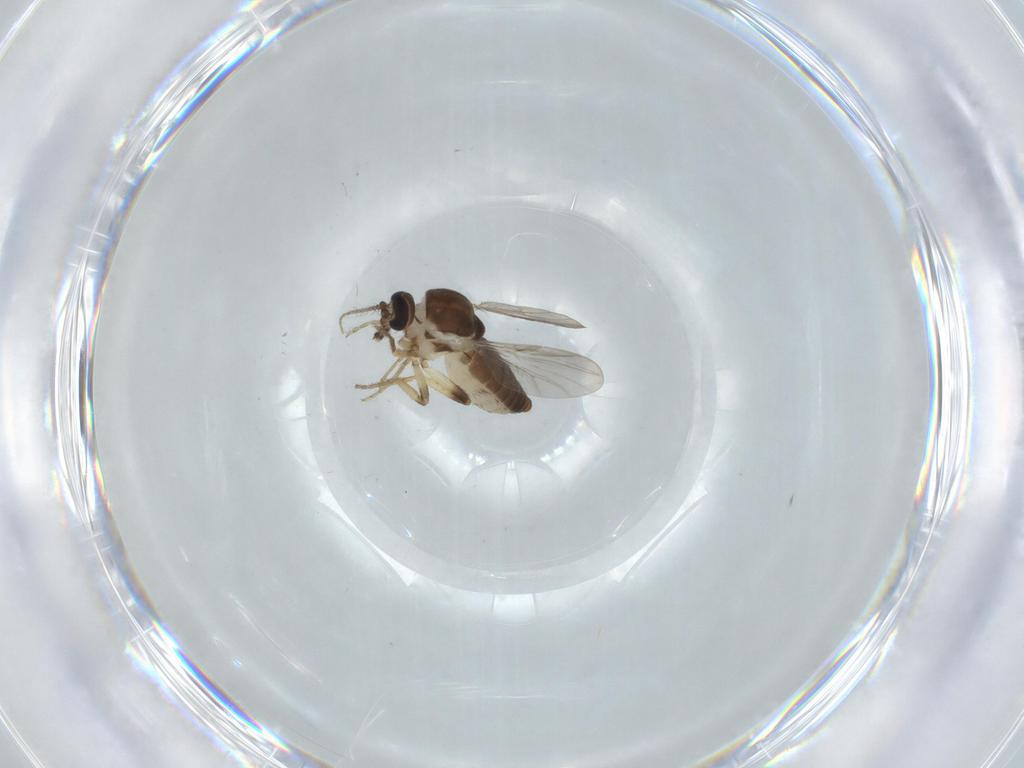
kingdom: Animalia
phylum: Arthropoda
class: Insecta
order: Diptera
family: Ceratopogonidae
